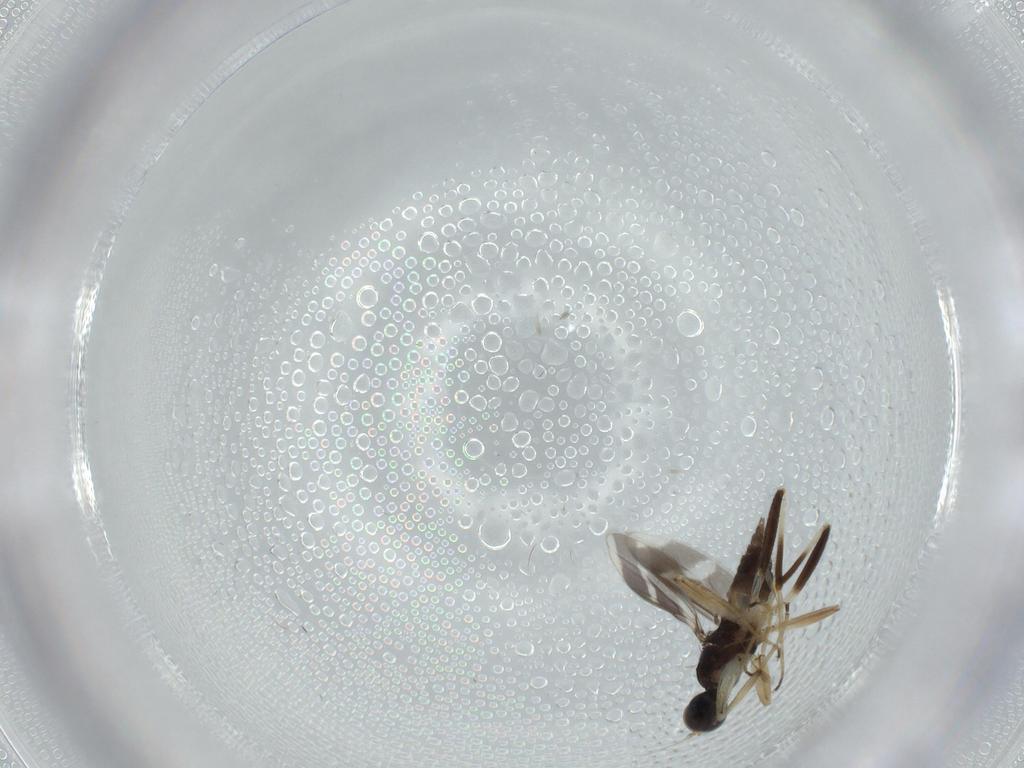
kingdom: Animalia
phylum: Arthropoda
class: Insecta
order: Diptera
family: Hybotidae
